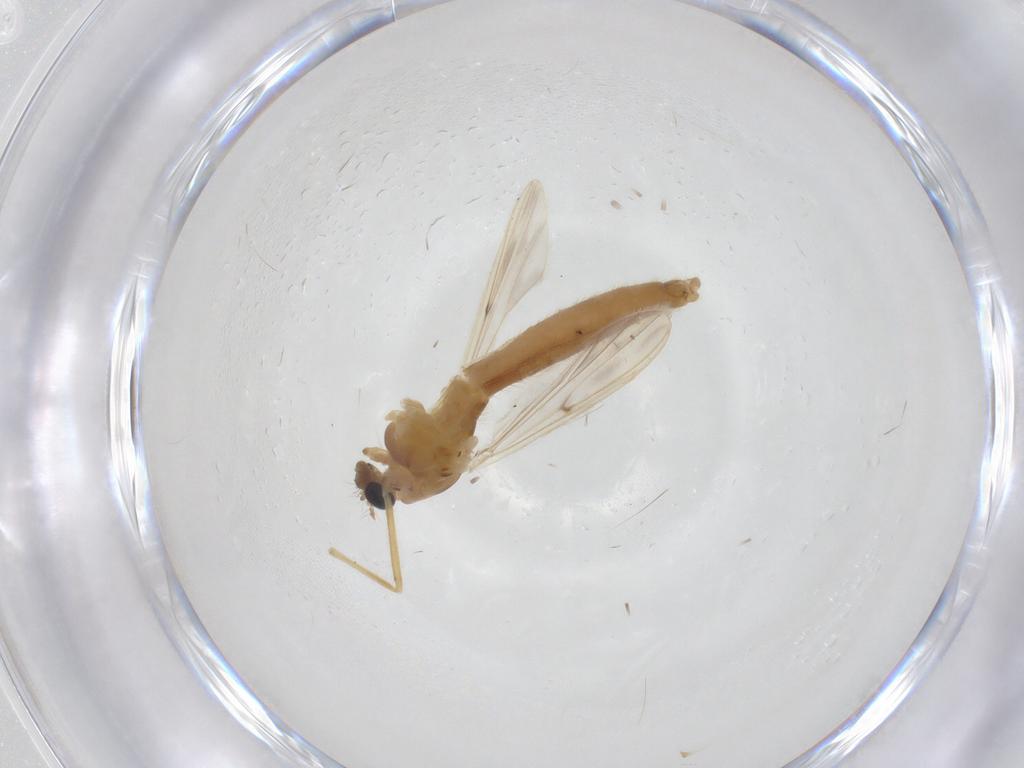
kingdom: Animalia
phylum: Arthropoda
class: Insecta
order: Diptera
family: Chironomidae
